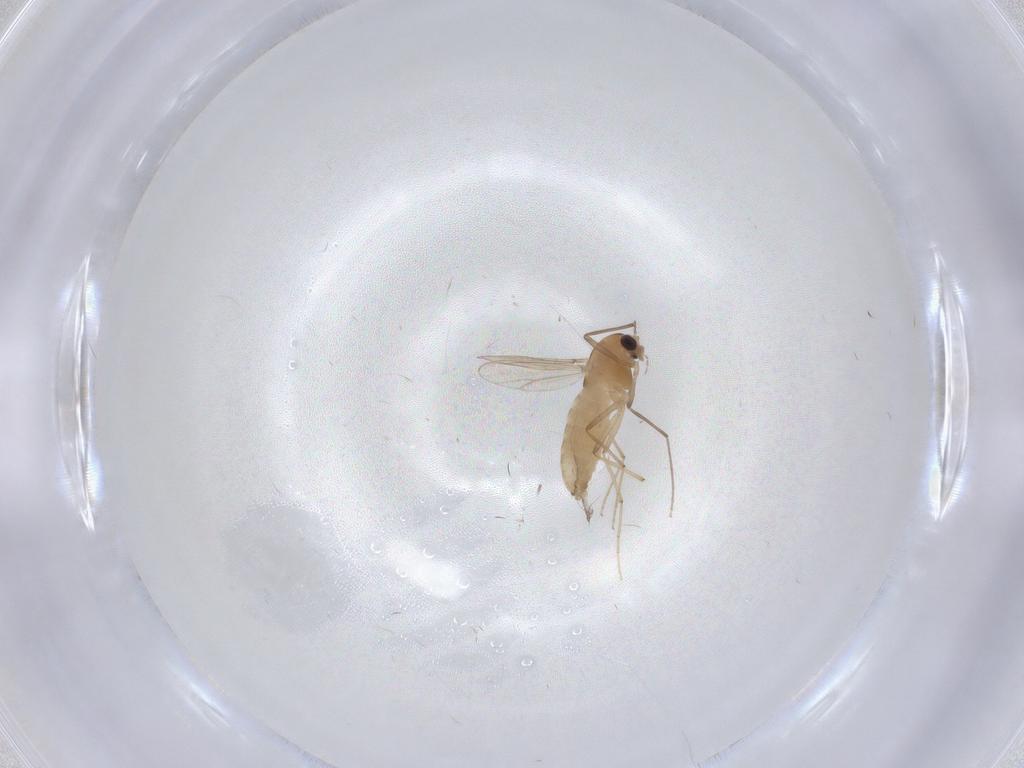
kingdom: Animalia
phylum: Arthropoda
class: Insecta
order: Diptera
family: Chironomidae
